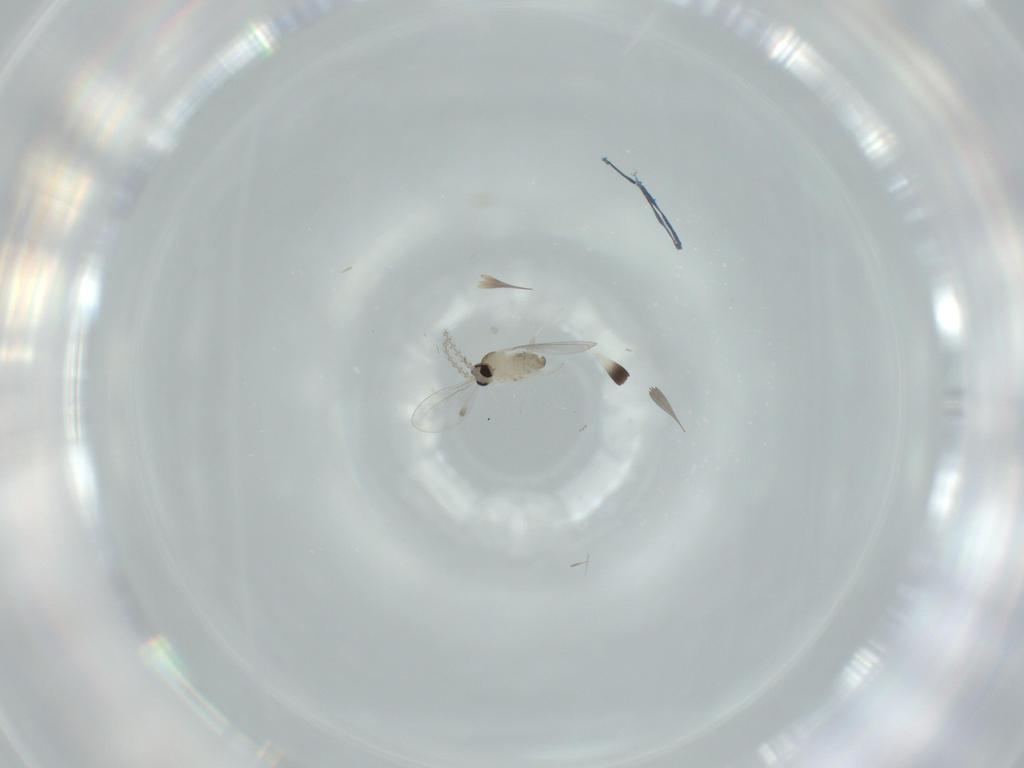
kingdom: Animalia
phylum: Arthropoda
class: Insecta
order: Diptera
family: Cecidomyiidae
